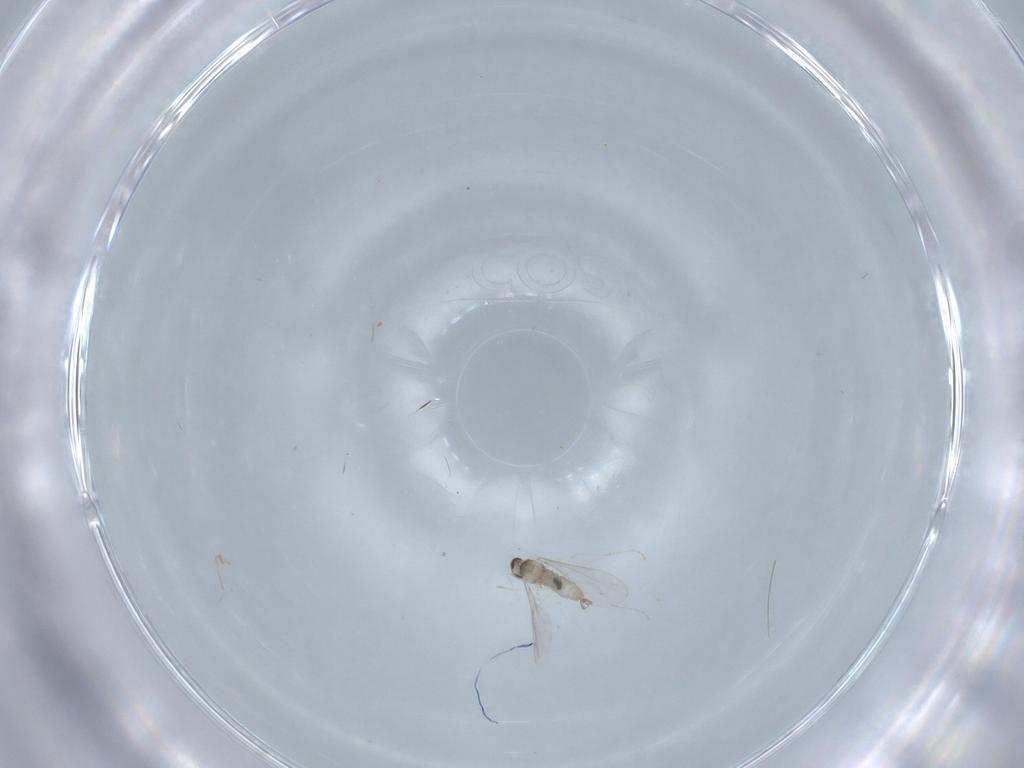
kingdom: Animalia
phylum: Arthropoda
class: Insecta
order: Diptera
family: Cecidomyiidae
